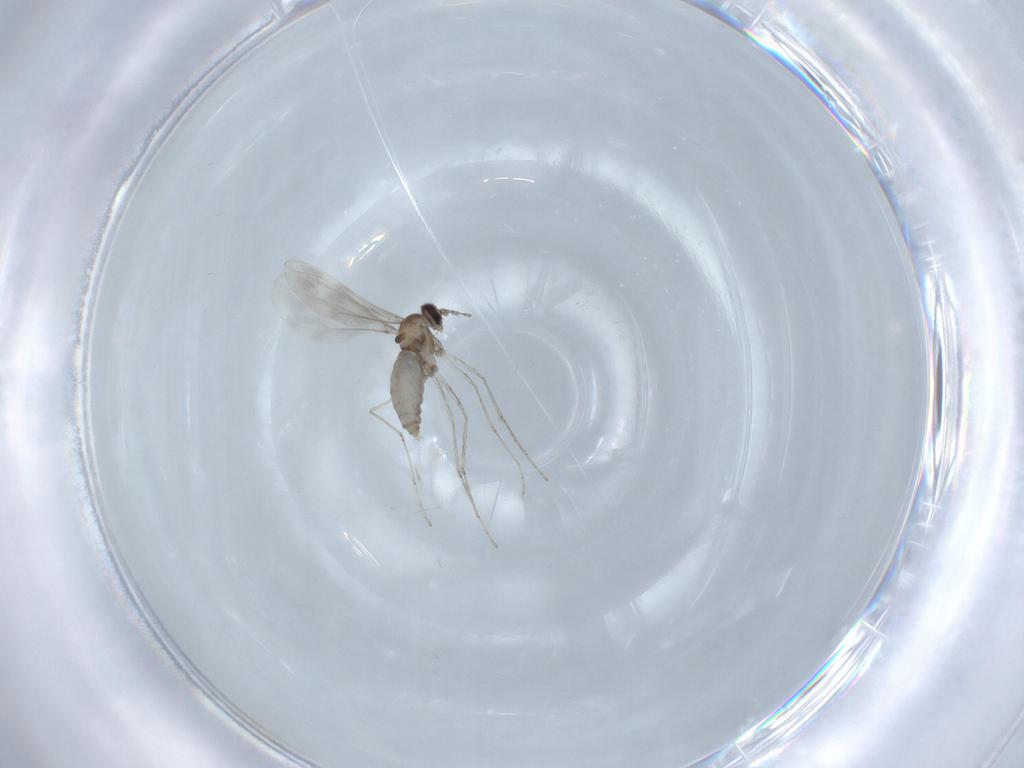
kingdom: Animalia
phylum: Arthropoda
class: Insecta
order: Diptera
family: Cecidomyiidae
